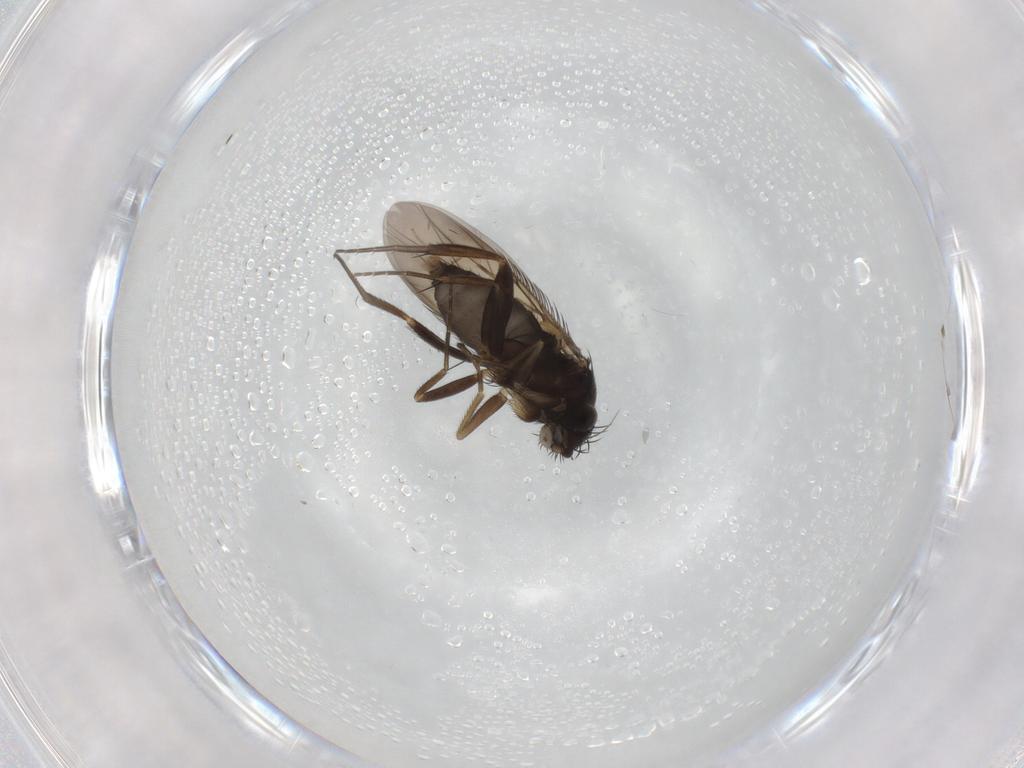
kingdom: Animalia
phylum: Arthropoda
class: Insecta
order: Diptera
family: Chironomidae
